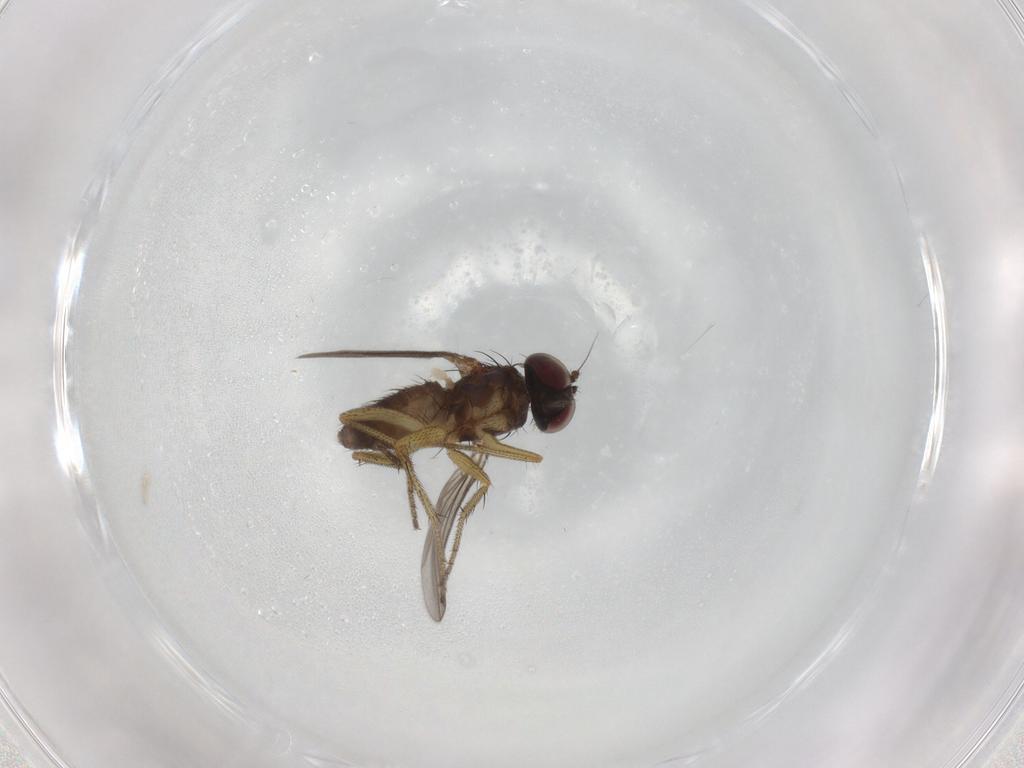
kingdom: Animalia
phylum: Arthropoda
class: Insecta
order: Diptera
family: Dolichopodidae
